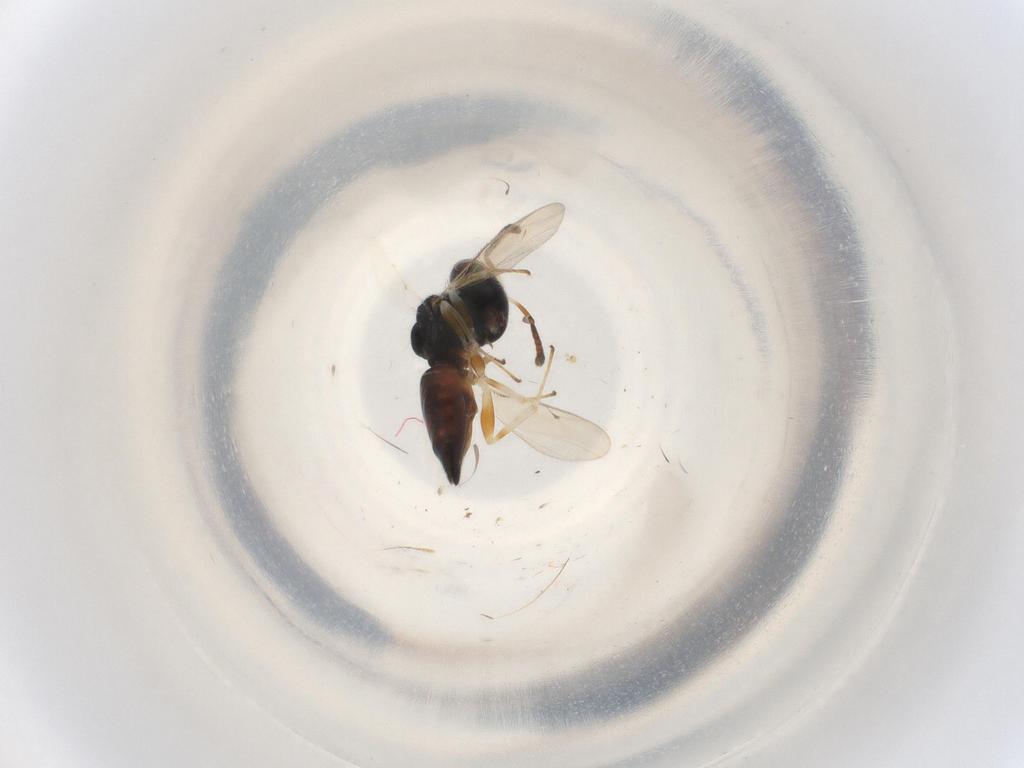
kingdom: Animalia
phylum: Arthropoda
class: Insecta
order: Hymenoptera
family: Pteromalidae
